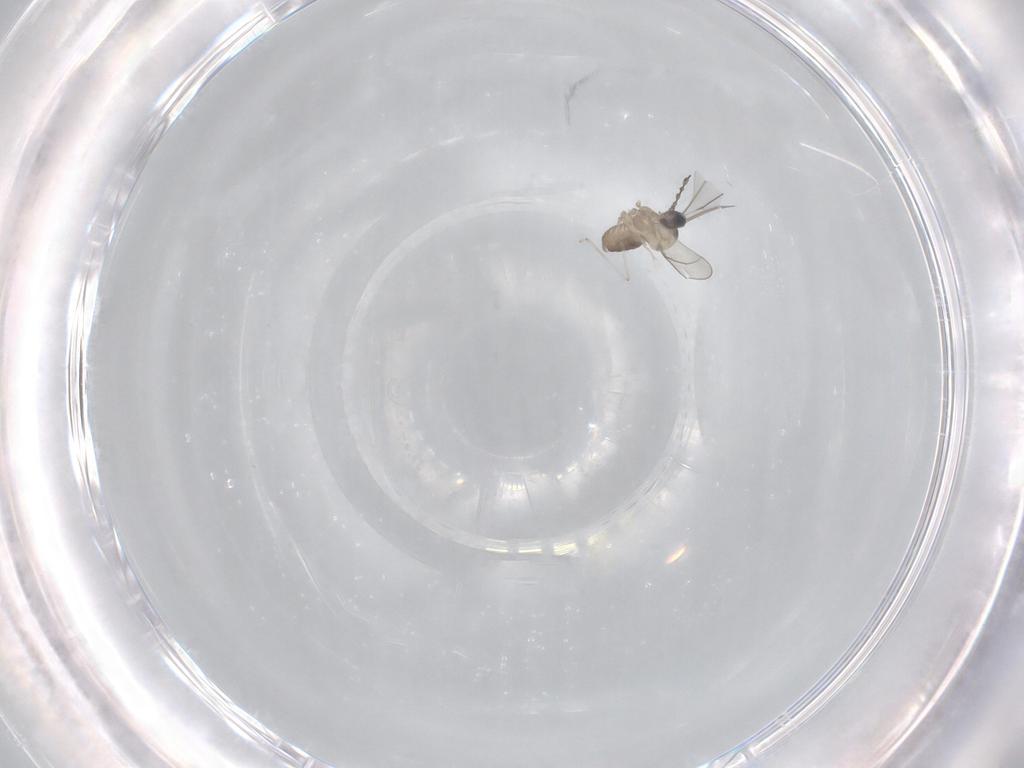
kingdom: Animalia
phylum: Arthropoda
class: Insecta
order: Diptera
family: Cecidomyiidae
